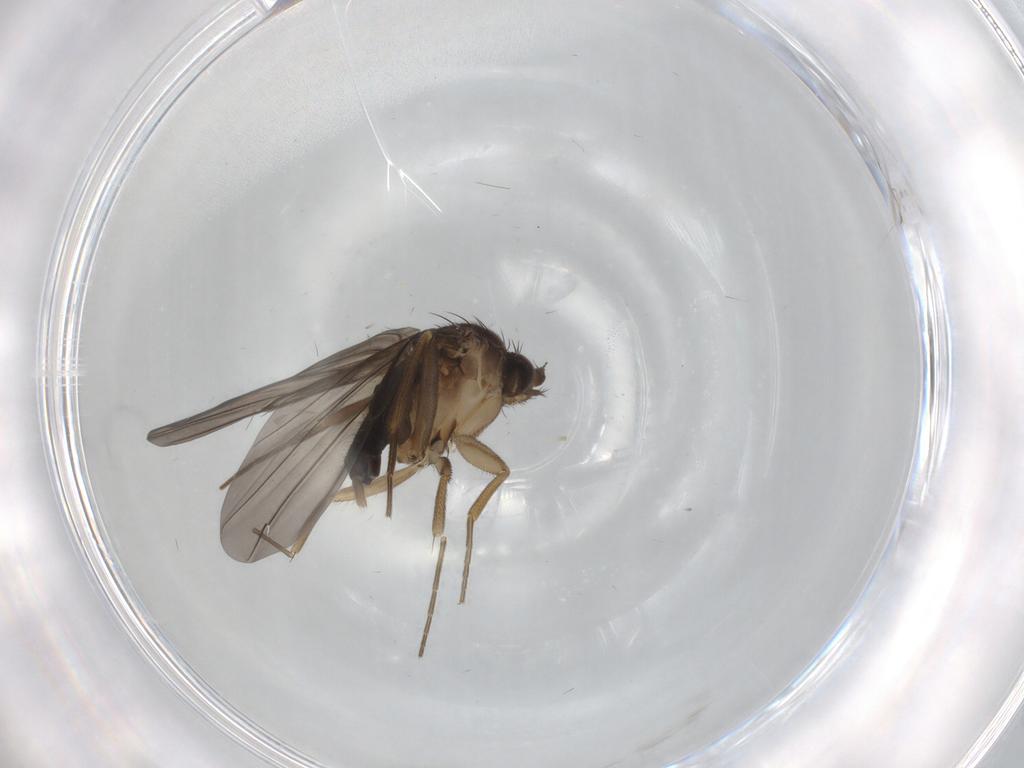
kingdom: Animalia
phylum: Arthropoda
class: Insecta
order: Diptera
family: Phoridae
